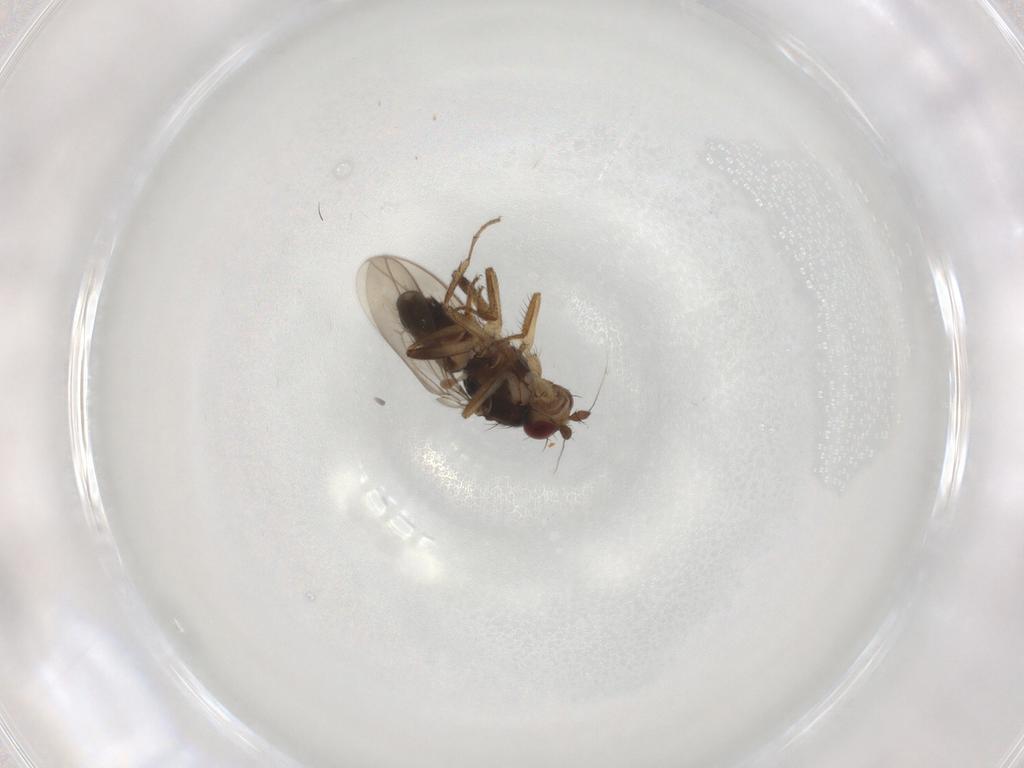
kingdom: Animalia
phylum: Arthropoda
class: Insecta
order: Diptera
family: Sphaeroceridae
